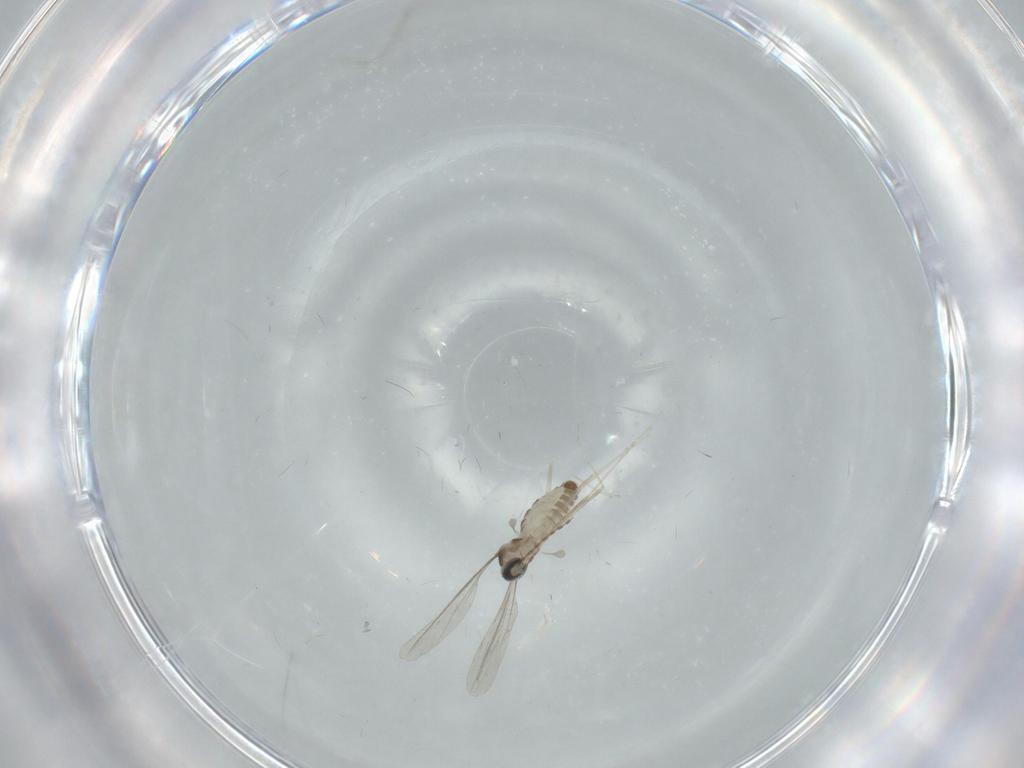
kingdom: Animalia
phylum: Arthropoda
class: Insecta
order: Diptera
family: Cecidomyiidae
